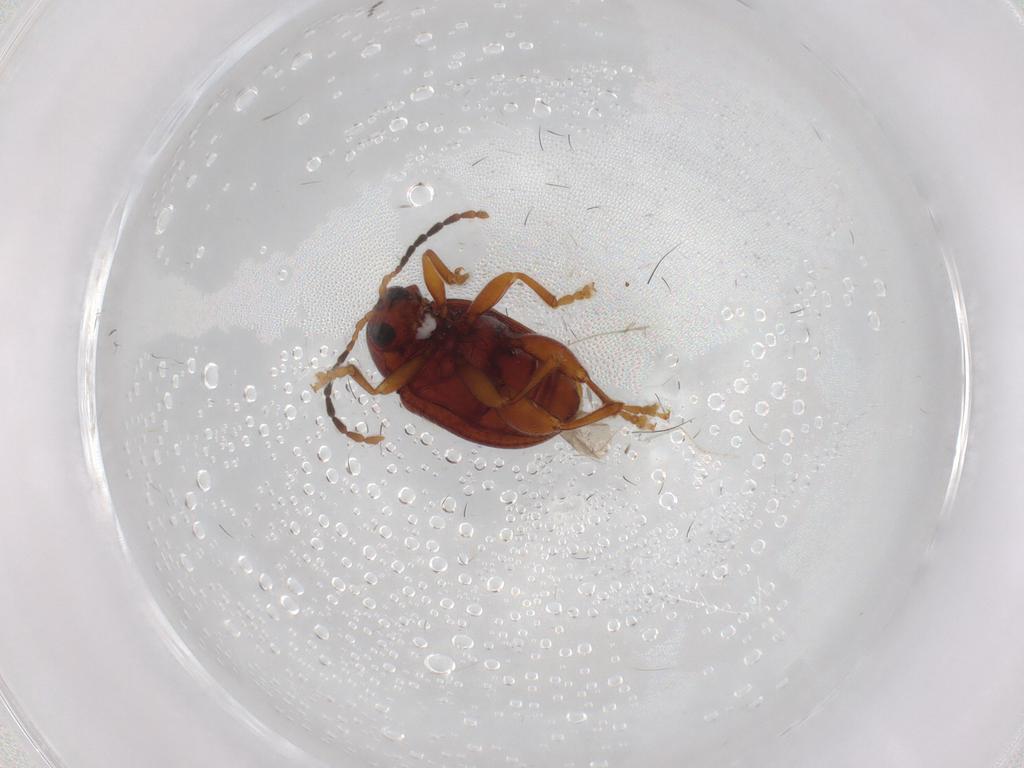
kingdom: Animalia
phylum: Arthropoda
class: Insecta
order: Coleoptera
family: Chrysomelidae
